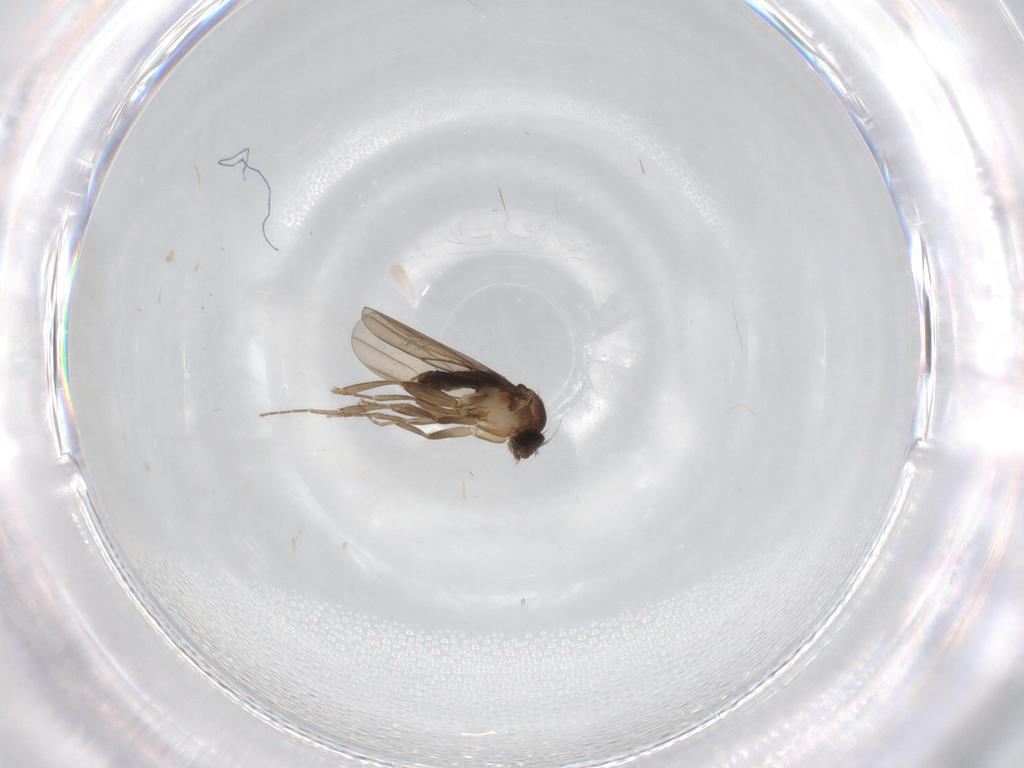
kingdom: Animalia
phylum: Arthropoda
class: Insecta
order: Diptera
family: Phoridae
